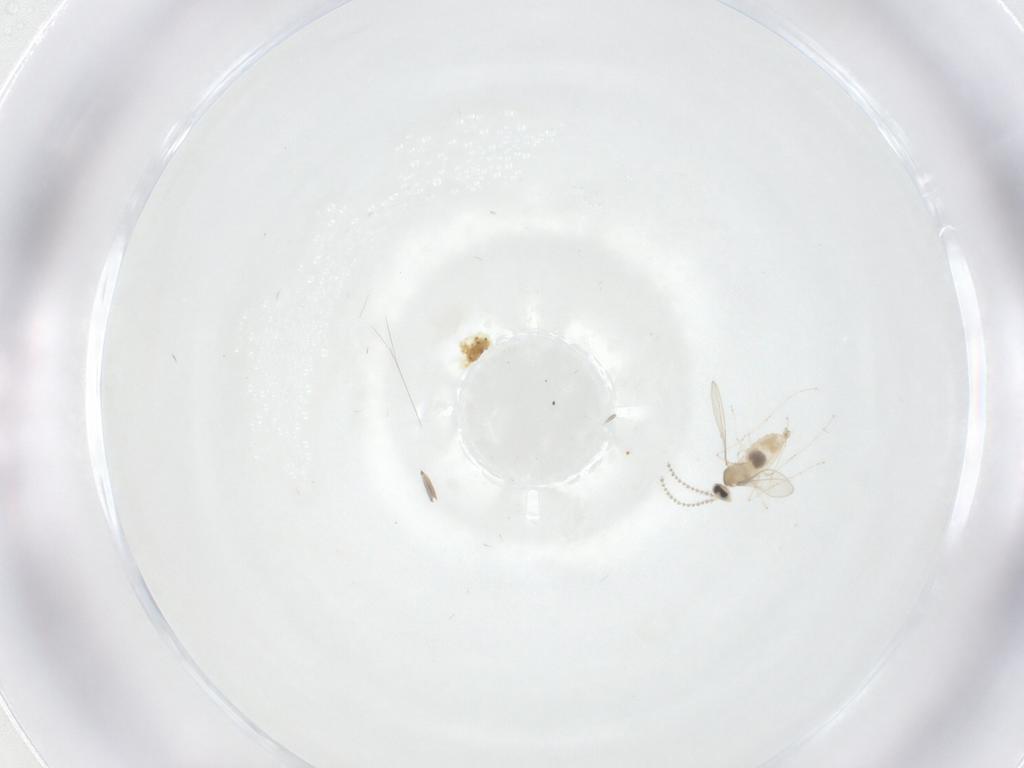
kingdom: Animalia
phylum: Arthropoda
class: Insecta
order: Diptera
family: Chironomidae
